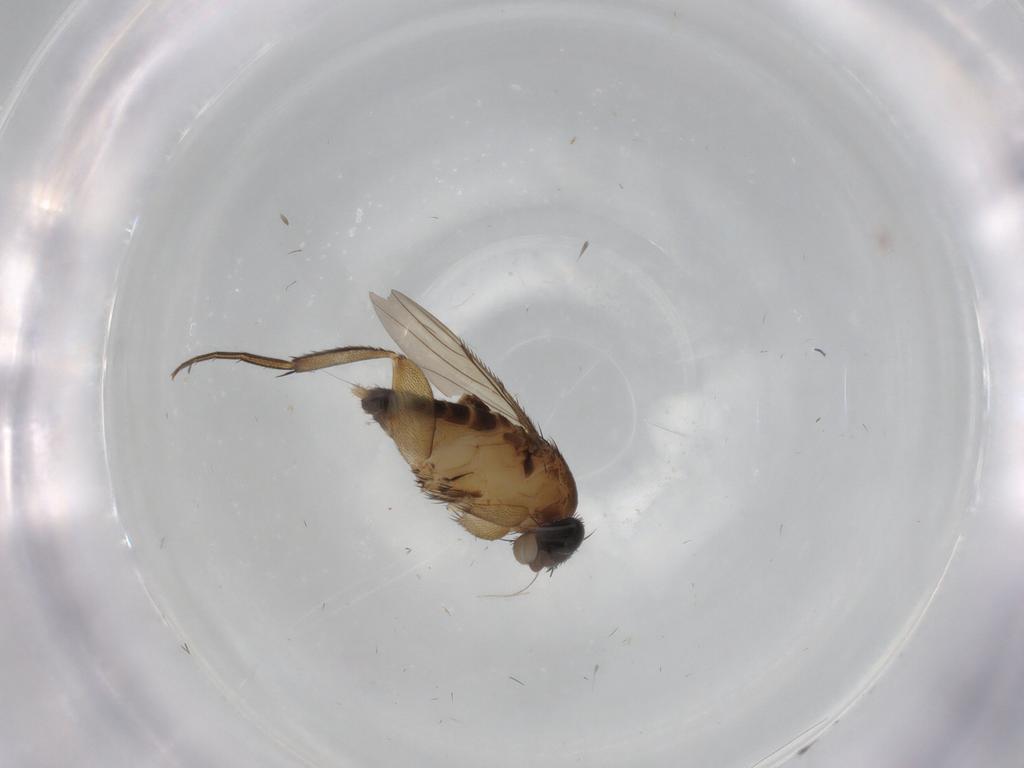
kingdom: Animalia
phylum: Arthropoda
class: Insecta
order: Diptera
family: Phoridae
